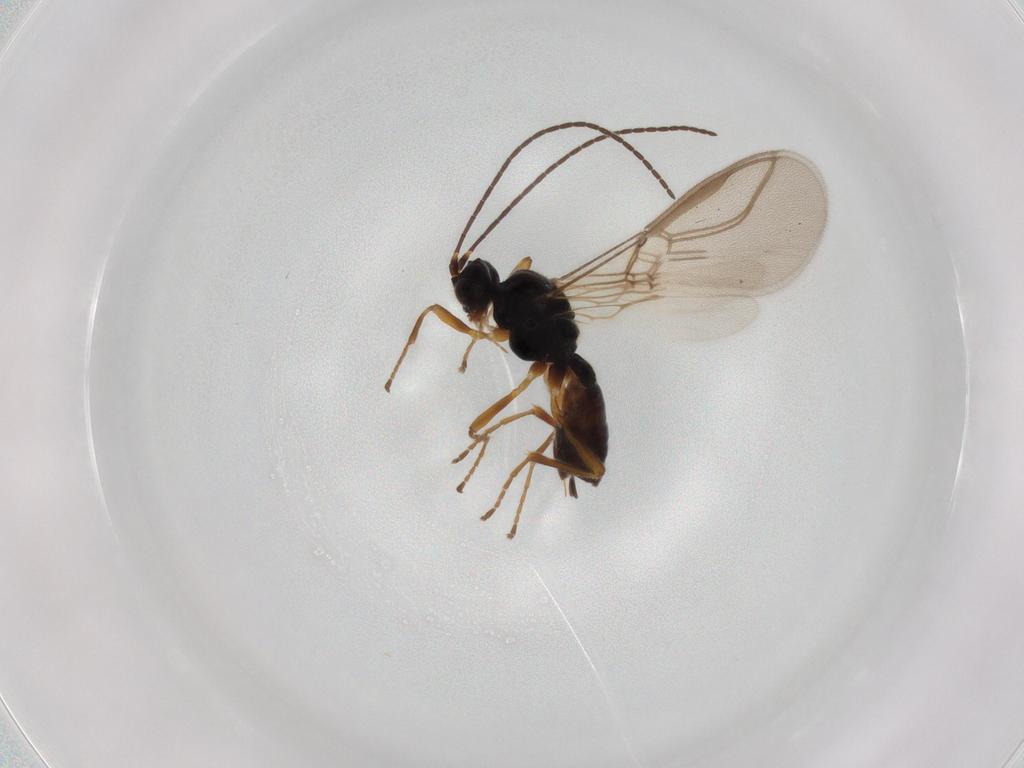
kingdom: Animalia
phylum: Arthropoda
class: Insecta
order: Hymenoptera
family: Braconidae
